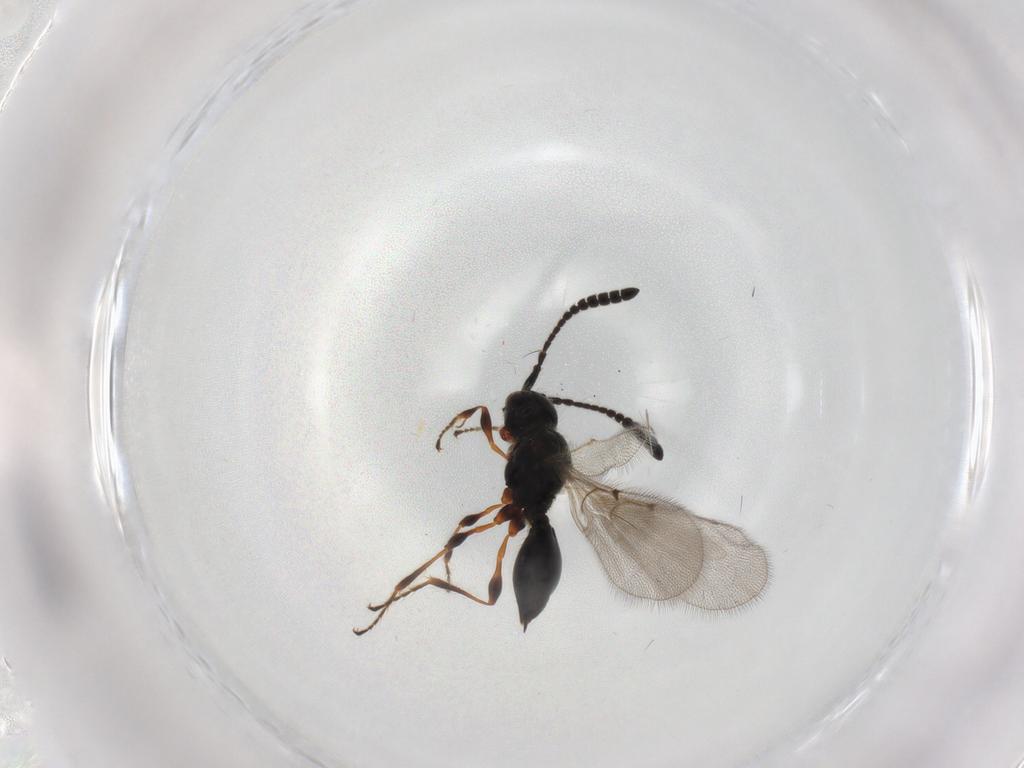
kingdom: Animalia
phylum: Arthropoda
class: Insecta
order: Hymenoptera
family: Diapriidae
